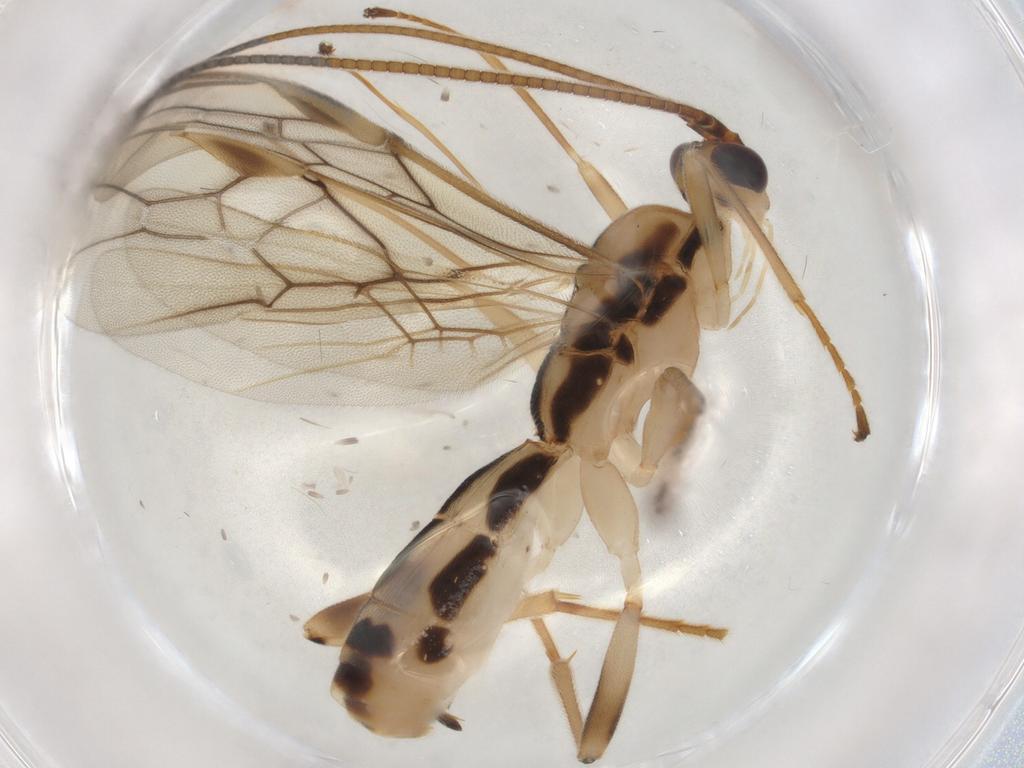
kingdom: Animalia
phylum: Arthropoda
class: Insecta
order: Hymenoptera
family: Braconidae
